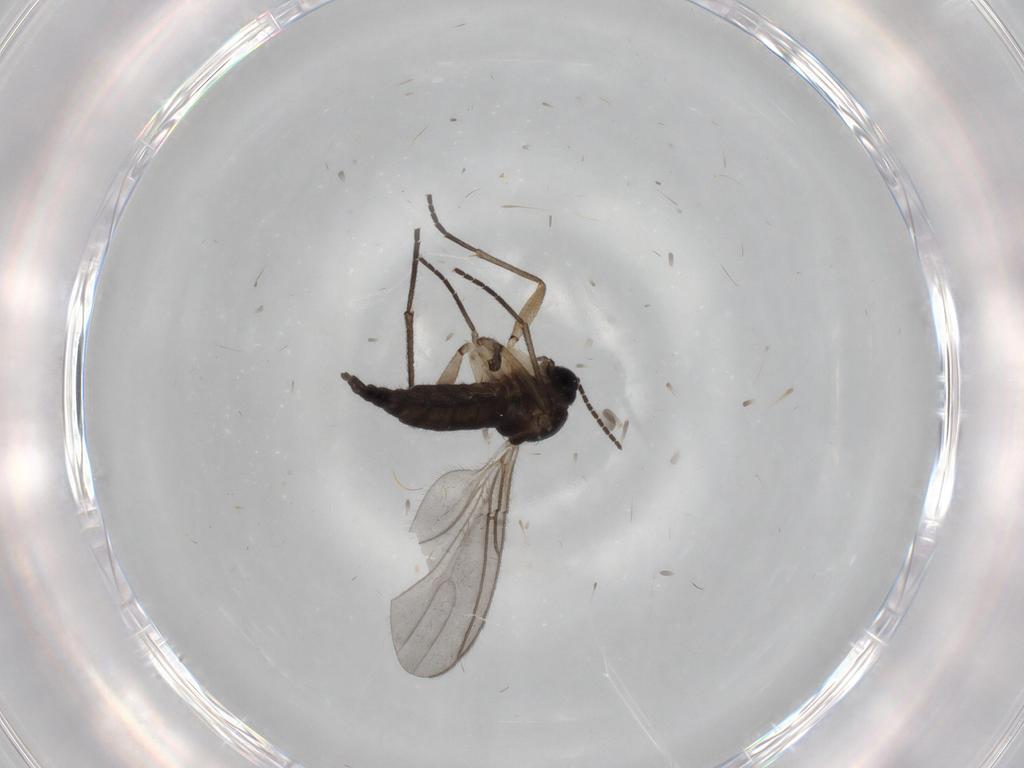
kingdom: Animalia
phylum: Arthropoda
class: Insecta
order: Diptera
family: Sciaridae
